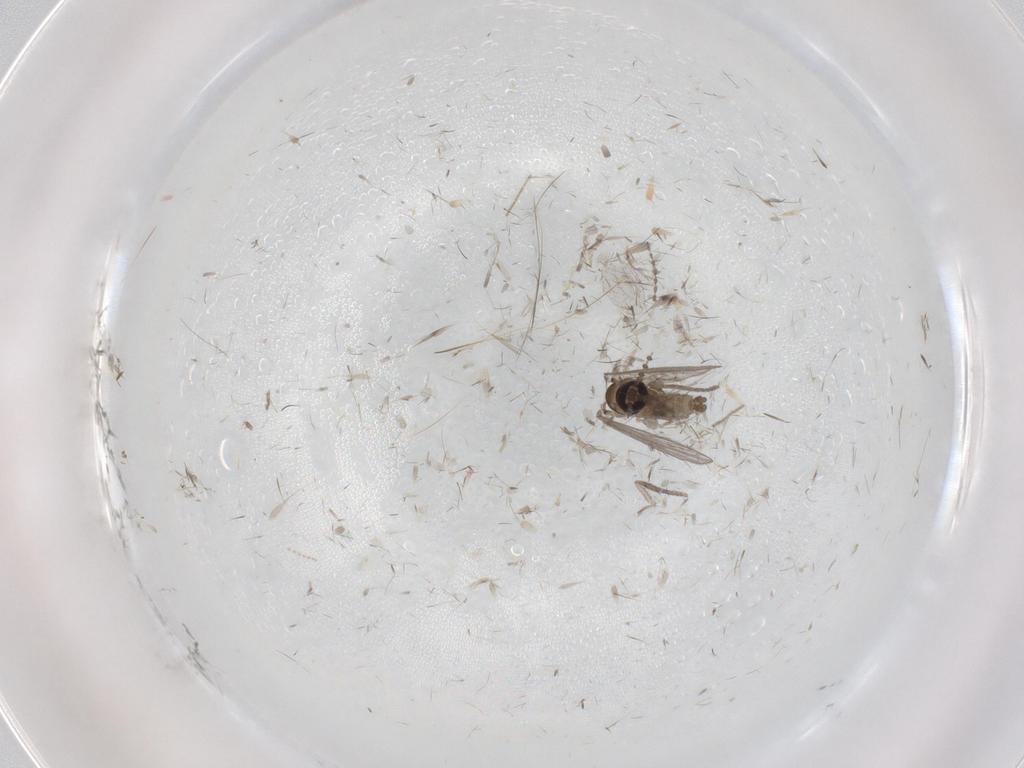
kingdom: Animalia
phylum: Arthropoda
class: Insecta
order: Diptera
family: Psychodidae
